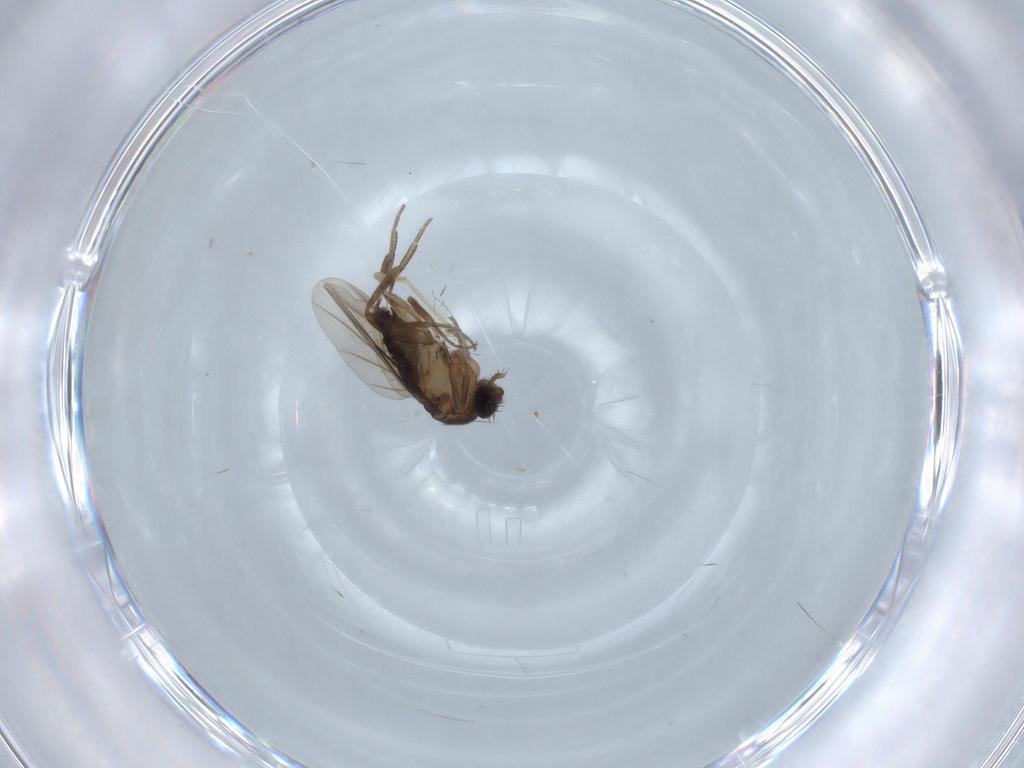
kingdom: Animalia
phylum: Arthropoda
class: Insecta
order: Diptera
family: Phoridae
